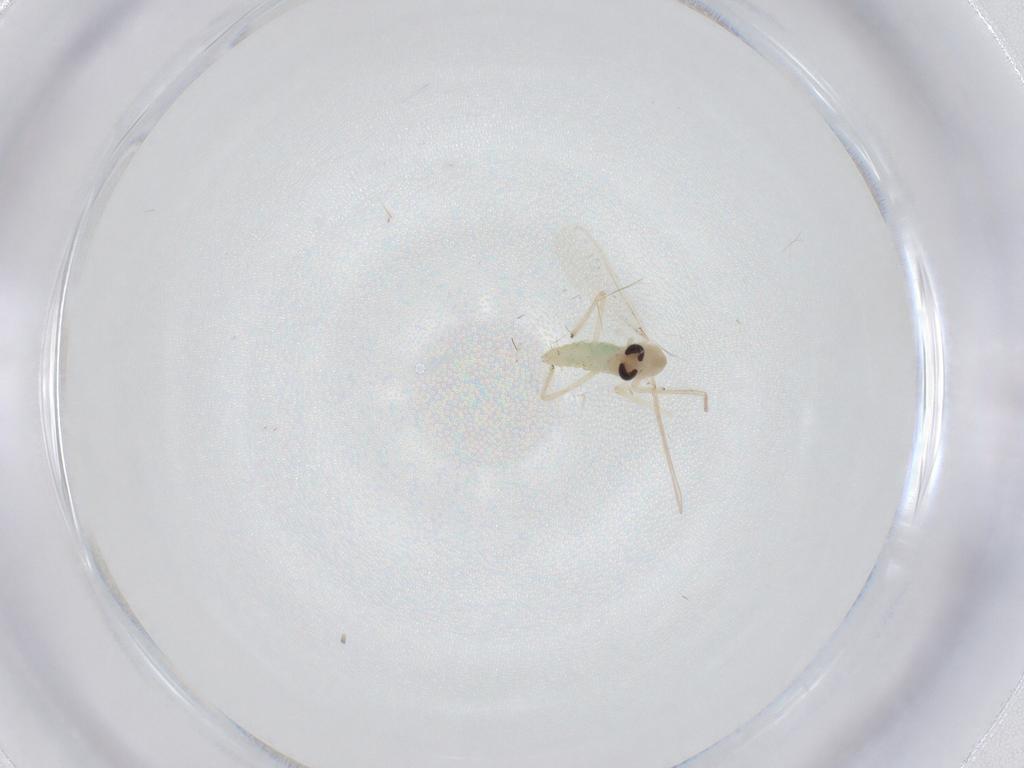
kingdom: Animalia
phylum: Arthropoda
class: Insecta
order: Diptera
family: Chironomidae
